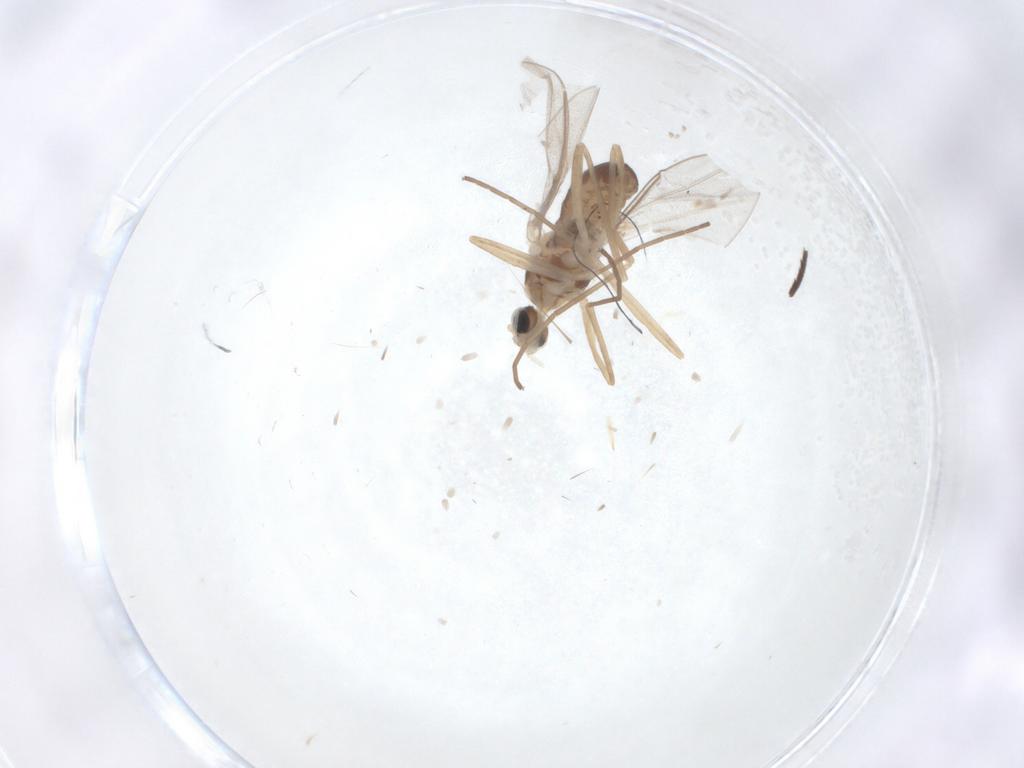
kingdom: Animalia
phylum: Arthropoda
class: Insecta
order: Diptera
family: Cecidomyiidae
